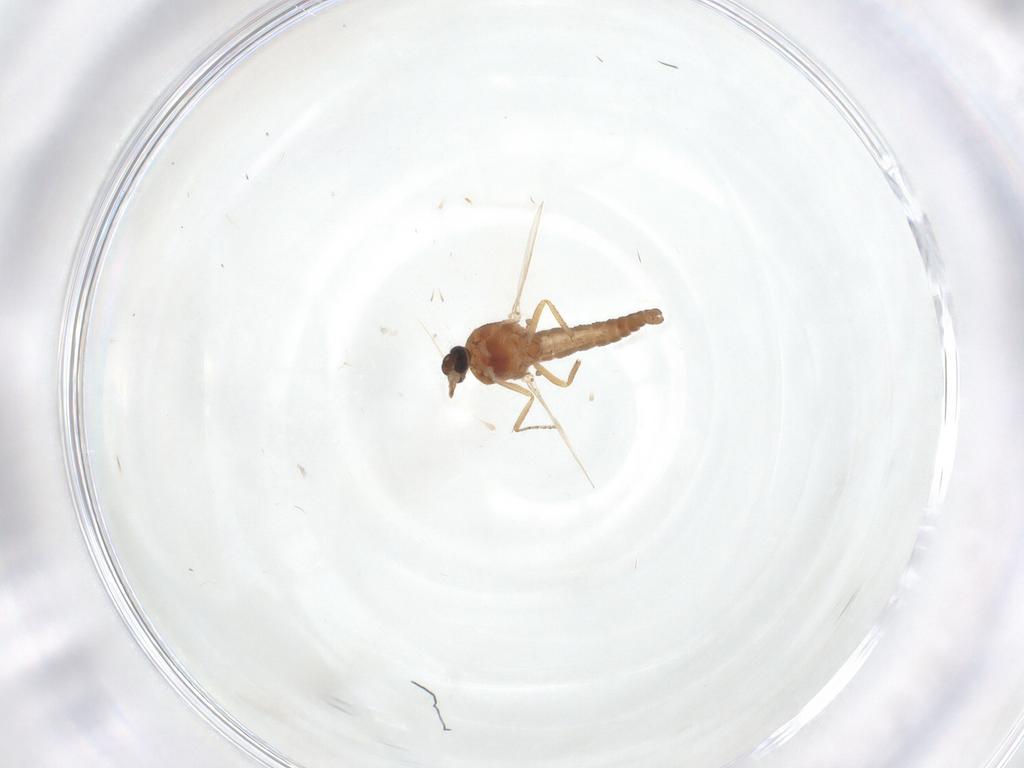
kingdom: Animalia
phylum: Arthropoda
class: Insecta
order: Diptera
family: Ceratopogonidae
